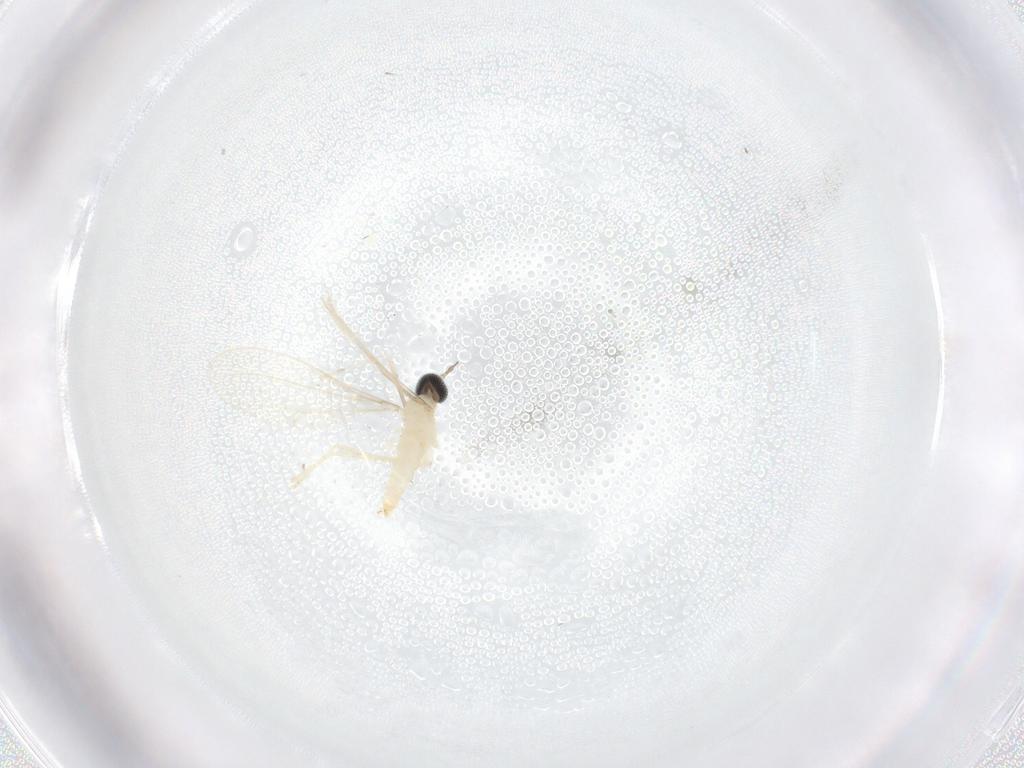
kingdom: Animalia
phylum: Arthropoda
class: Insecta
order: Diptera
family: Cecidomyiidae
